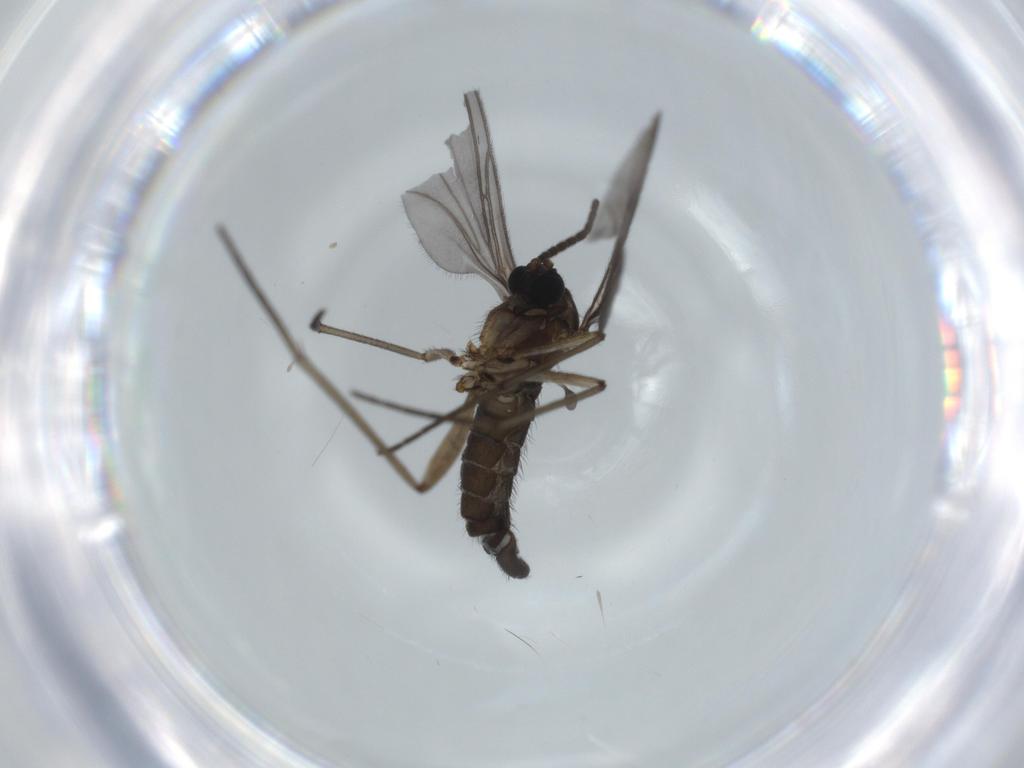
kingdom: Animalia
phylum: Arthropoda
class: Insecta
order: Diptera
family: Sciaridae
